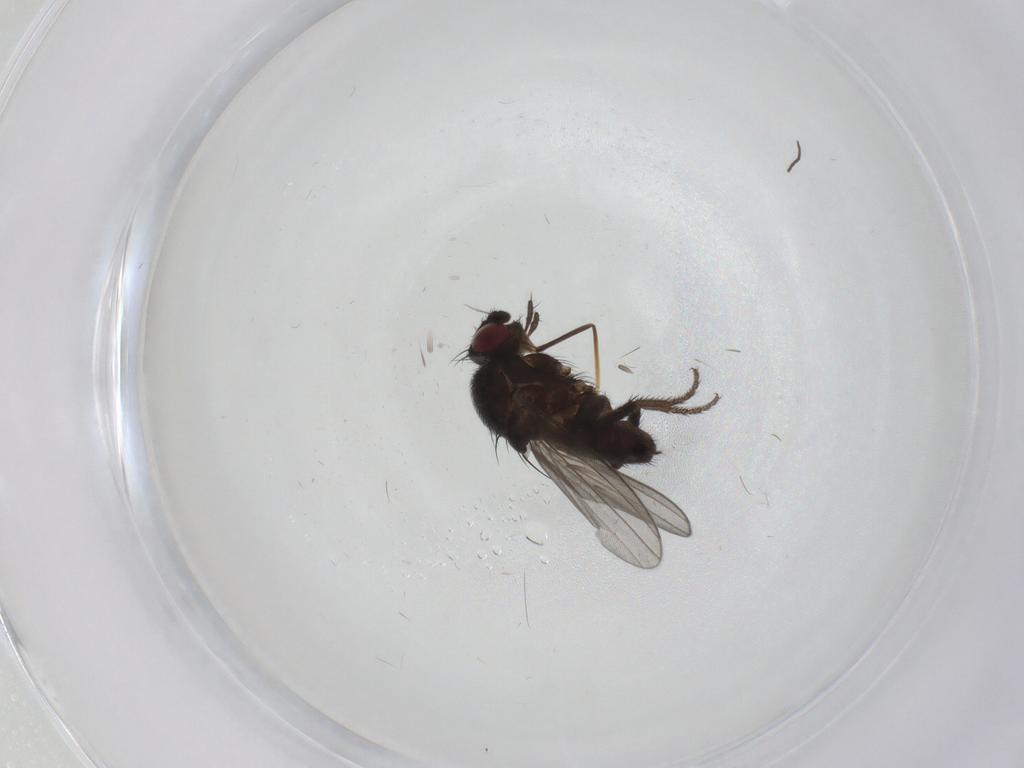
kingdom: Animalia
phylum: Arthropoda
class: Insecta
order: Diptera
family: Milichiidae
